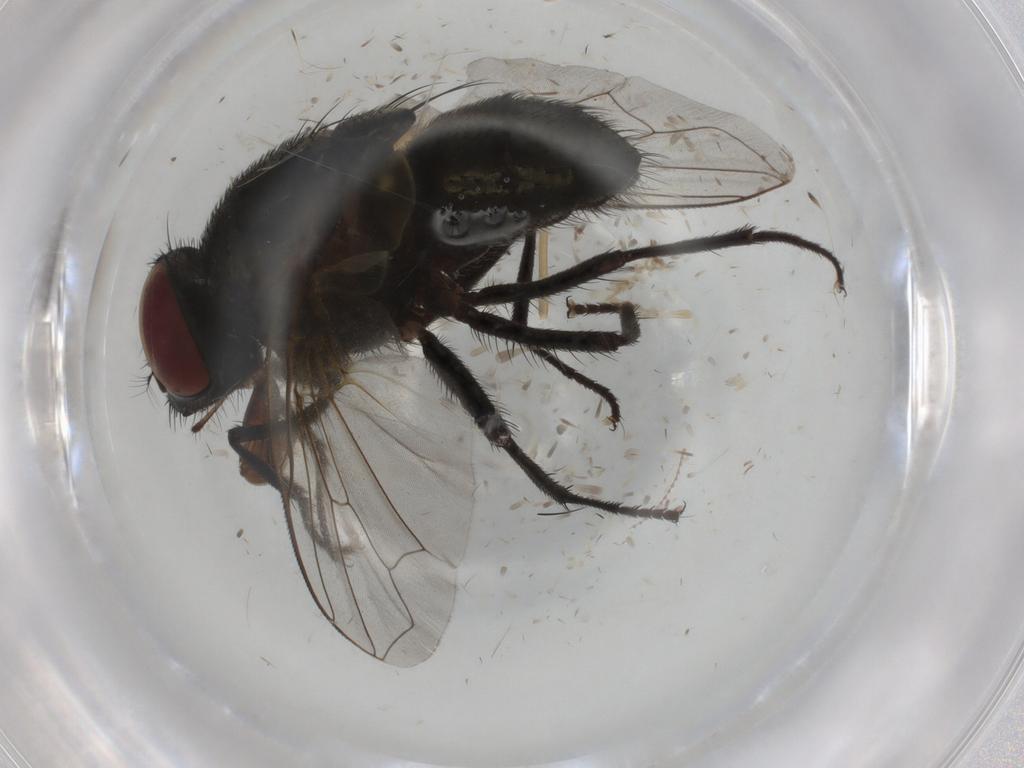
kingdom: Animalia
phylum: Arthropoda
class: Insecta
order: Diptera
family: Muscidae
